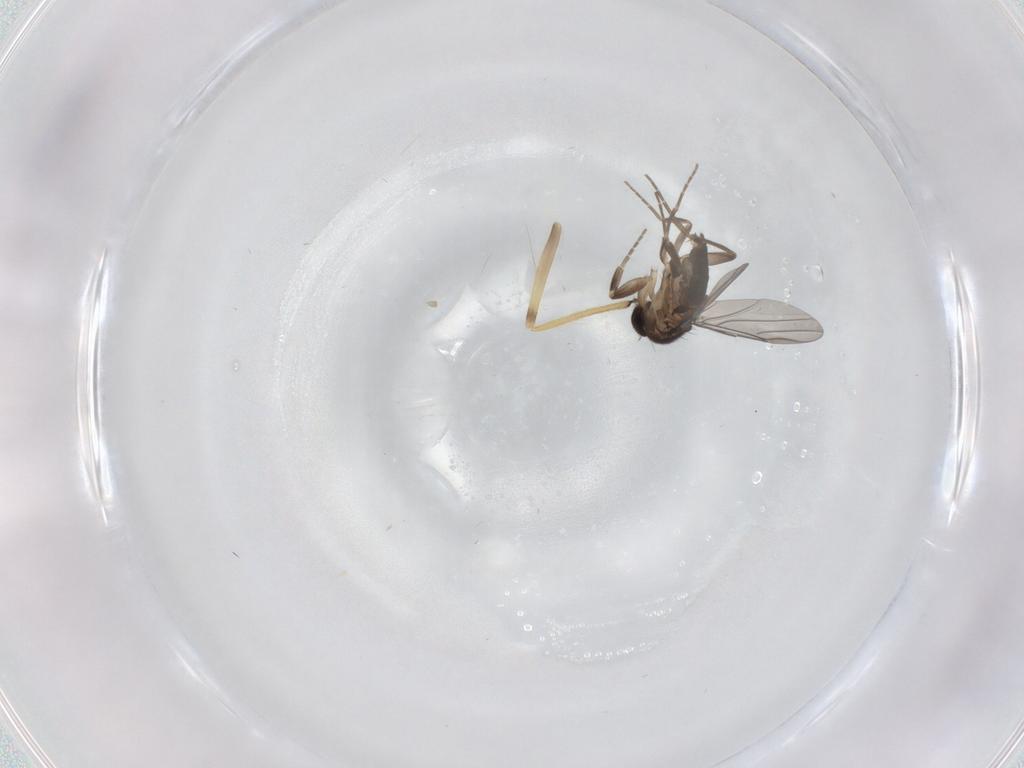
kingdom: Animalia
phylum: Arthropoda
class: Insecta
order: Diptera
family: Chironomidae
